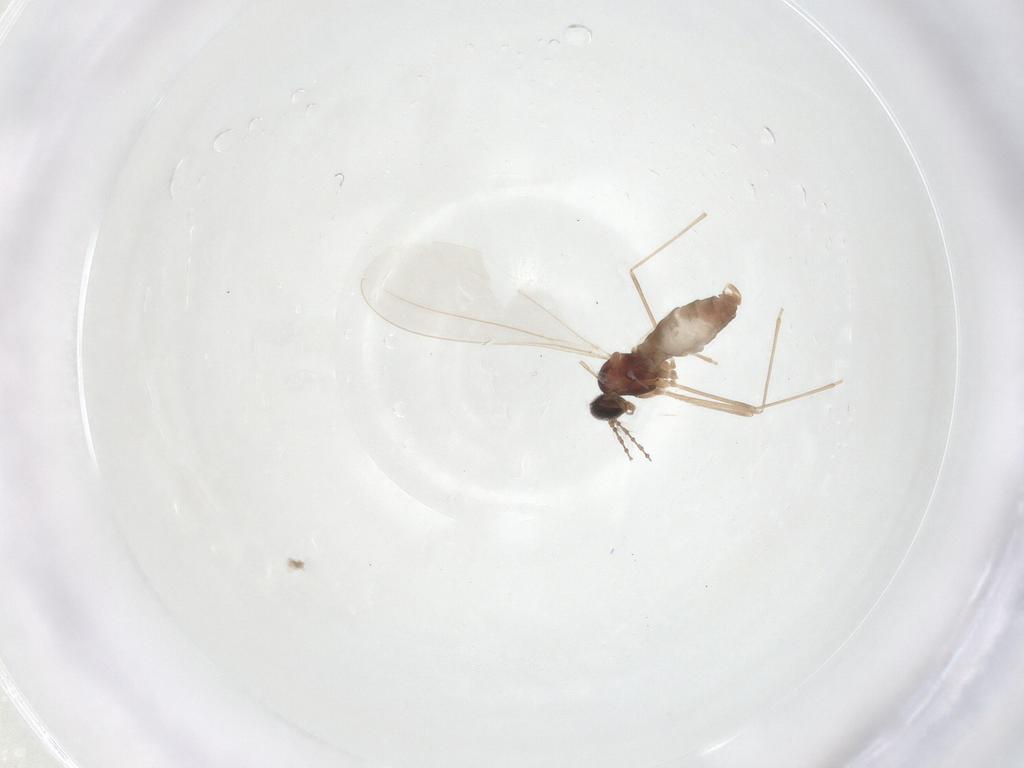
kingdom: Animalia
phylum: Arthropoda
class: Insecta
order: Diptera
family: Cecidomyiidae
